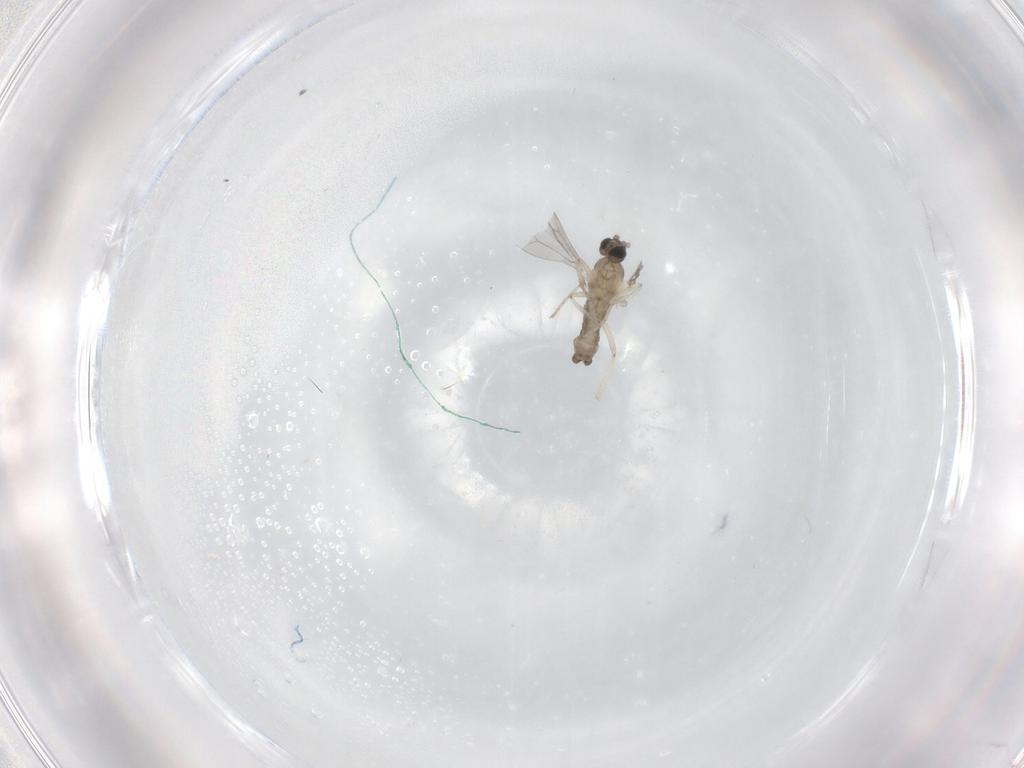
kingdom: Animalia
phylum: Arthropoda
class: Insecta
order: Diptera
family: Cecidomyiidae
